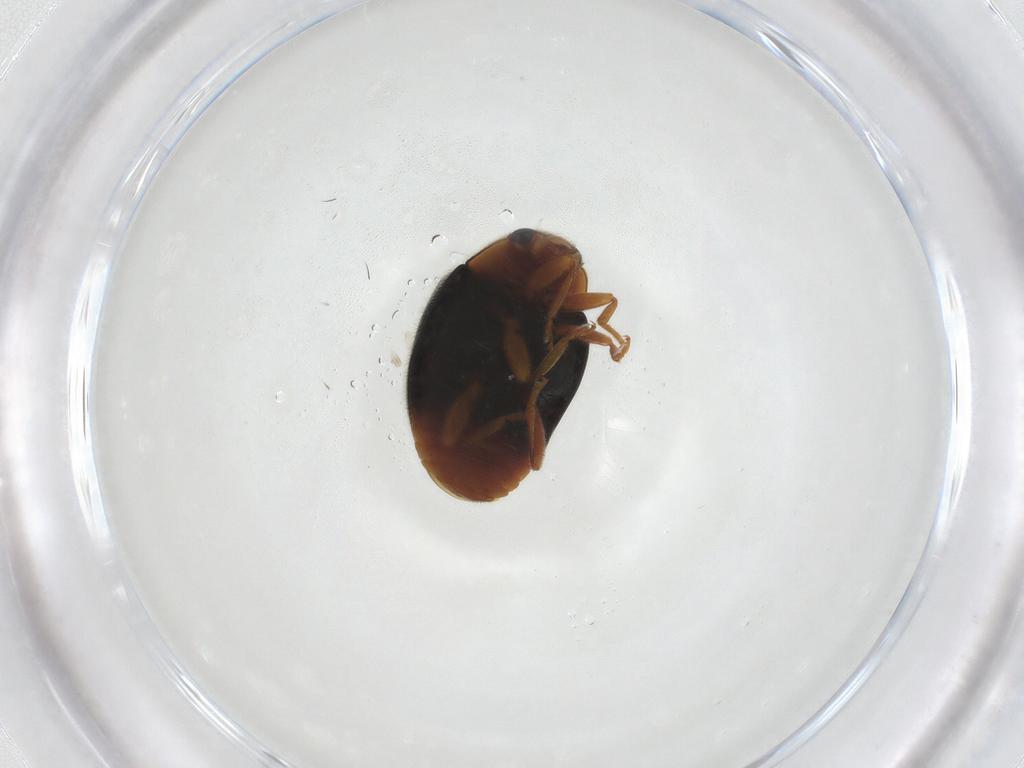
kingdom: Animalia
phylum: Arthropoda
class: Insecta
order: Coleoptera
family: Coccinellidae
